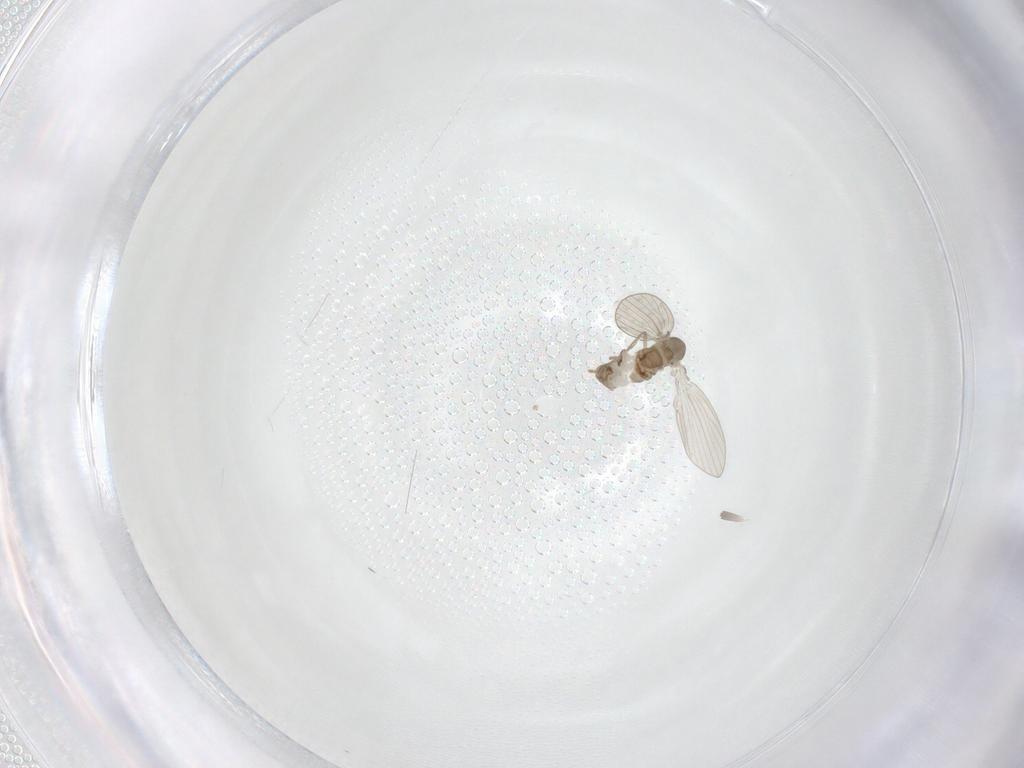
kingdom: Animalia
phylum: Arthropoda
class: Insecta
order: Diptera
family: Psychodidae
